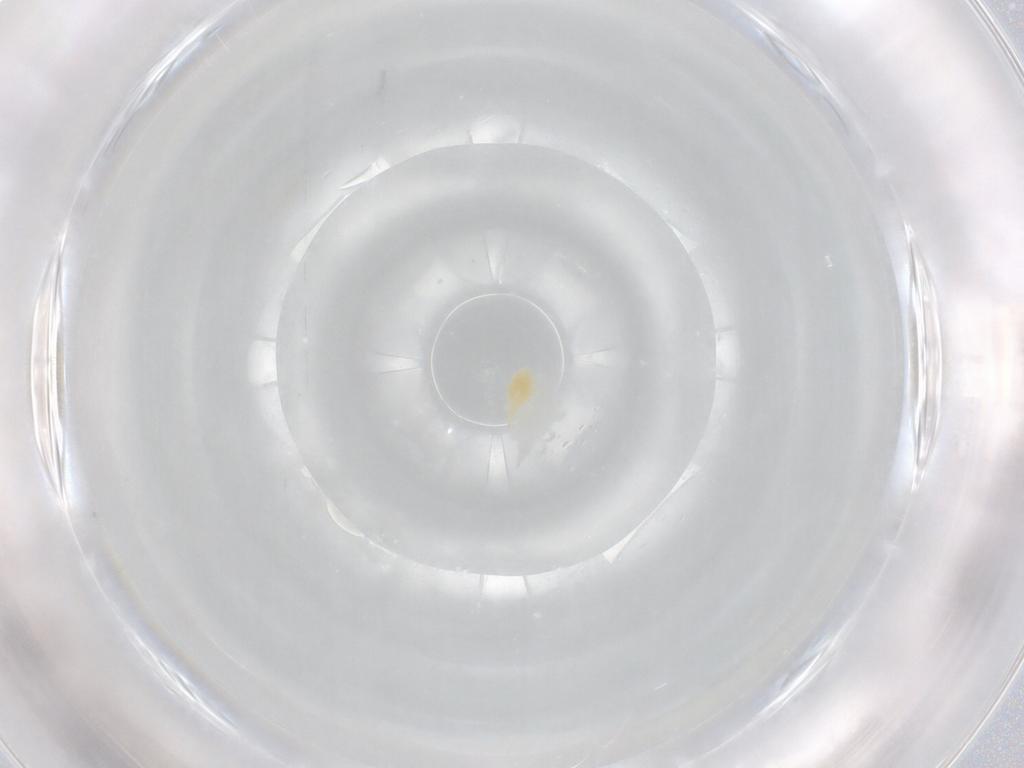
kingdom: Animalia
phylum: Arthropoda
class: Arachnida
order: Trombidiformes
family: Bdellidae
